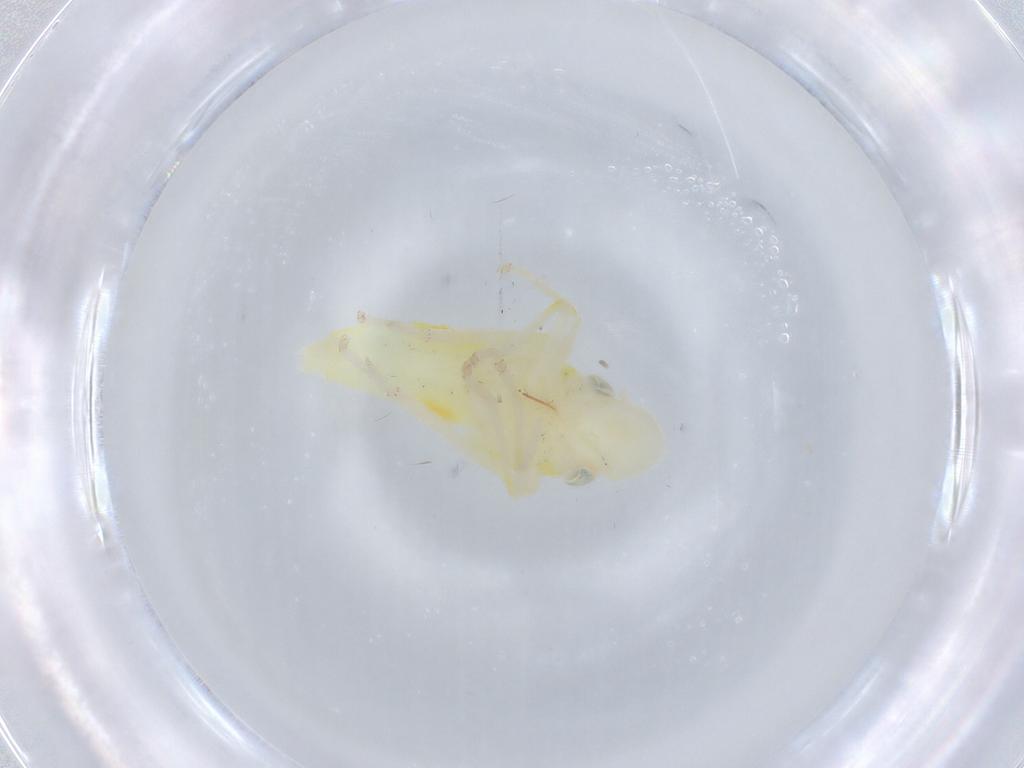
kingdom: Animalia
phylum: Arthropoda
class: Insecta
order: Hemiptera
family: Cicadellidae
